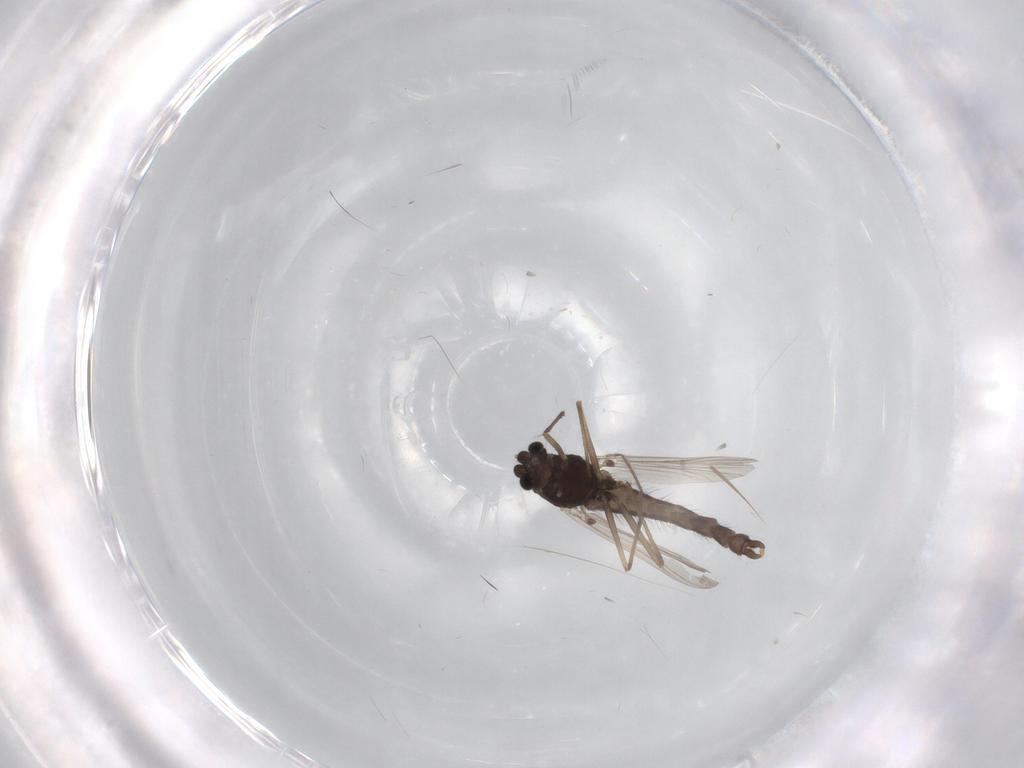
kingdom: Animalia
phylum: Arthropoda
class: Insecta
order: Diptera
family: Chironomidae
